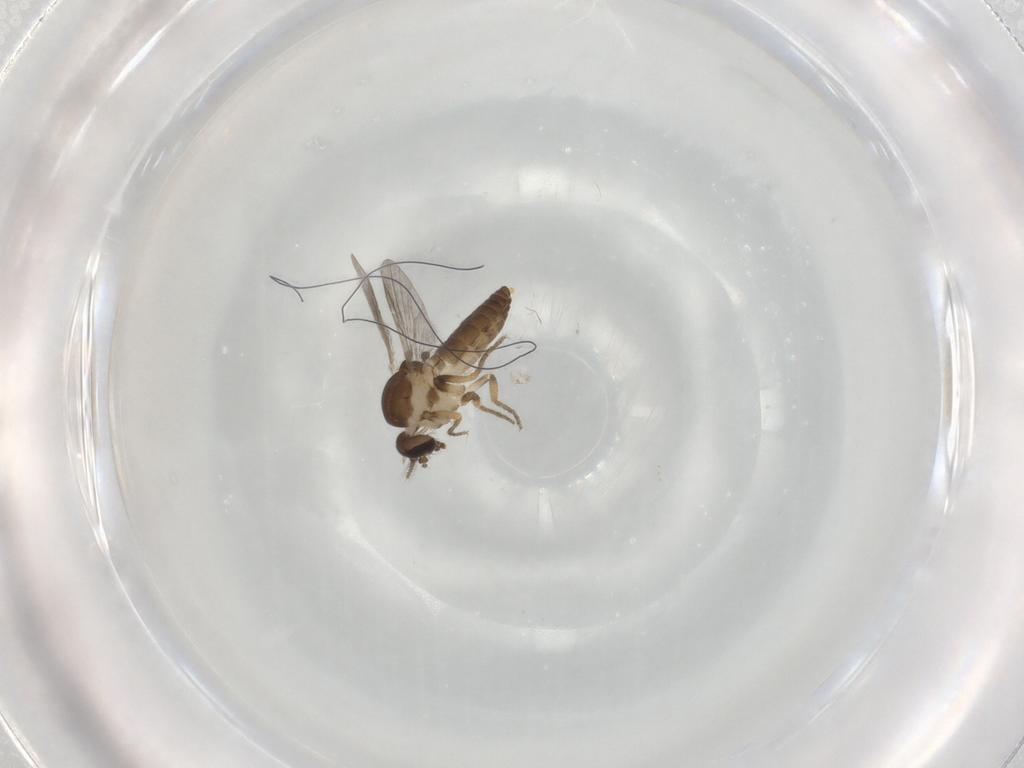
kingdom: Animalia
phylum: Arthropoda
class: Insecta
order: Diptera
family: Ceratopogonidae
